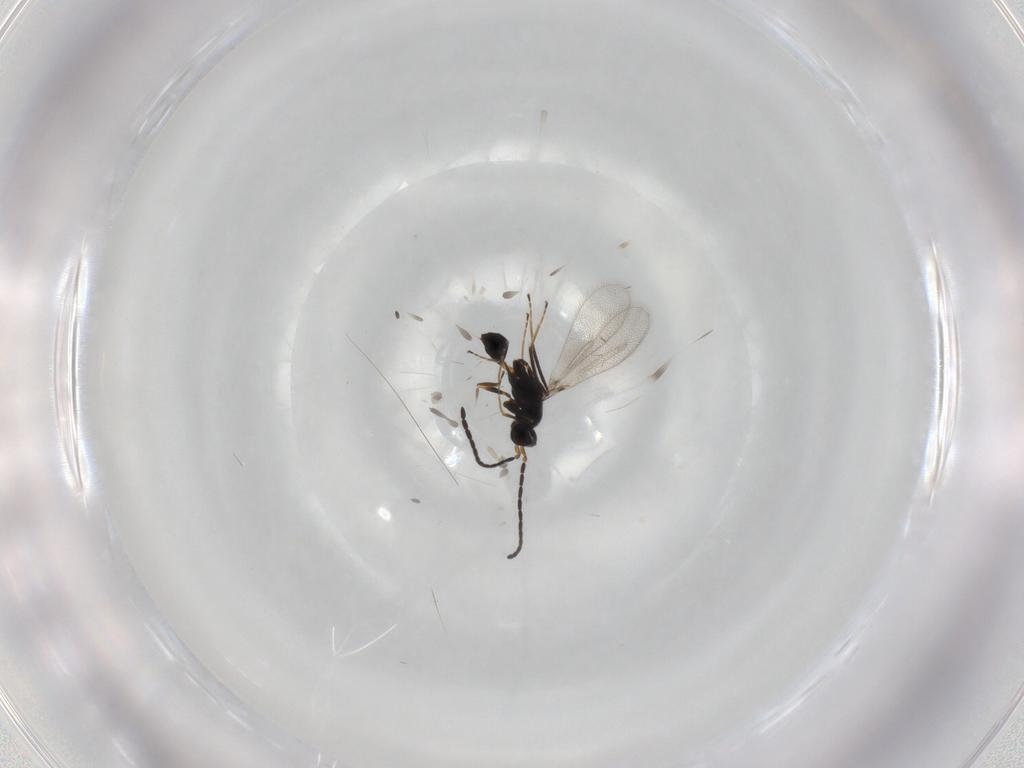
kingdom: Animalia
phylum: Arthropoda
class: Insecta
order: Hymenoptera
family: Mymaridae
